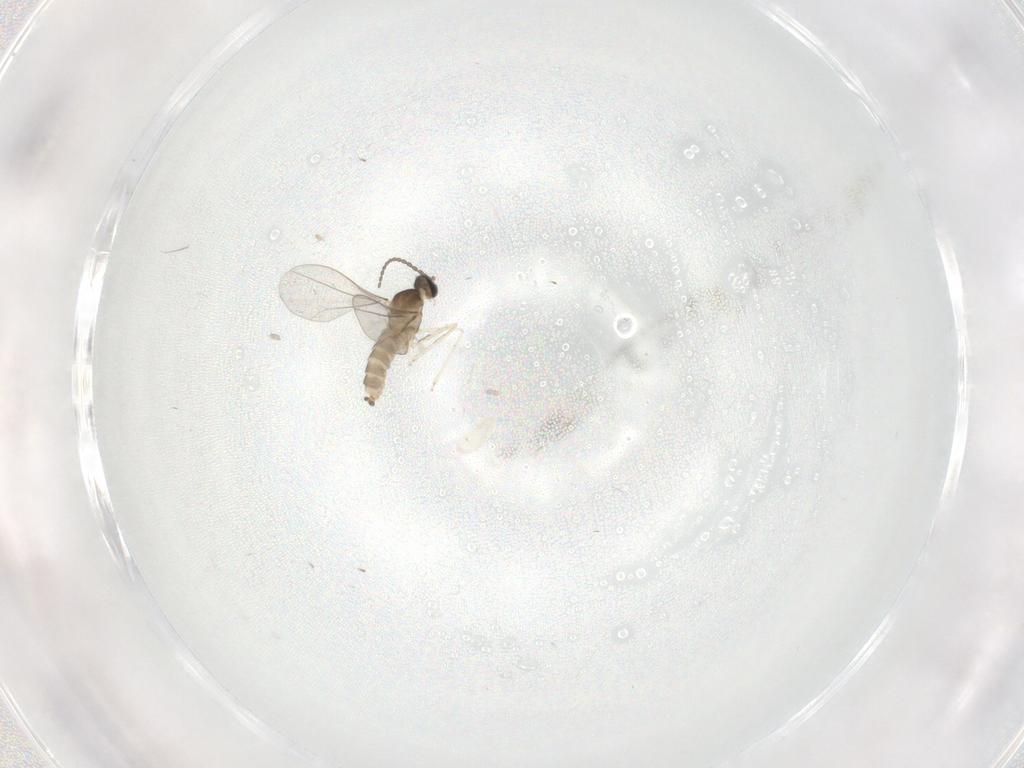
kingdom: Animalia
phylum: Arthropoda
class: Insecta
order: Diptera
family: Cecidomyiidae
